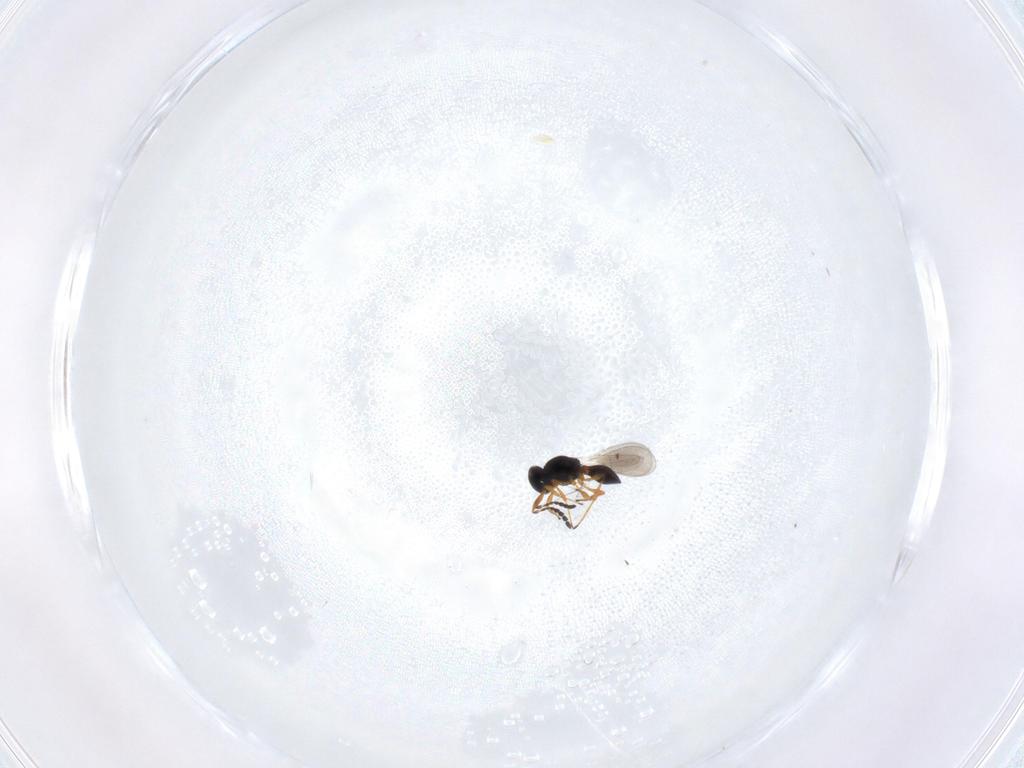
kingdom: Animalia
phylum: Arthropoda
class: Insecta
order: Hymenoptera
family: Platygastridae
